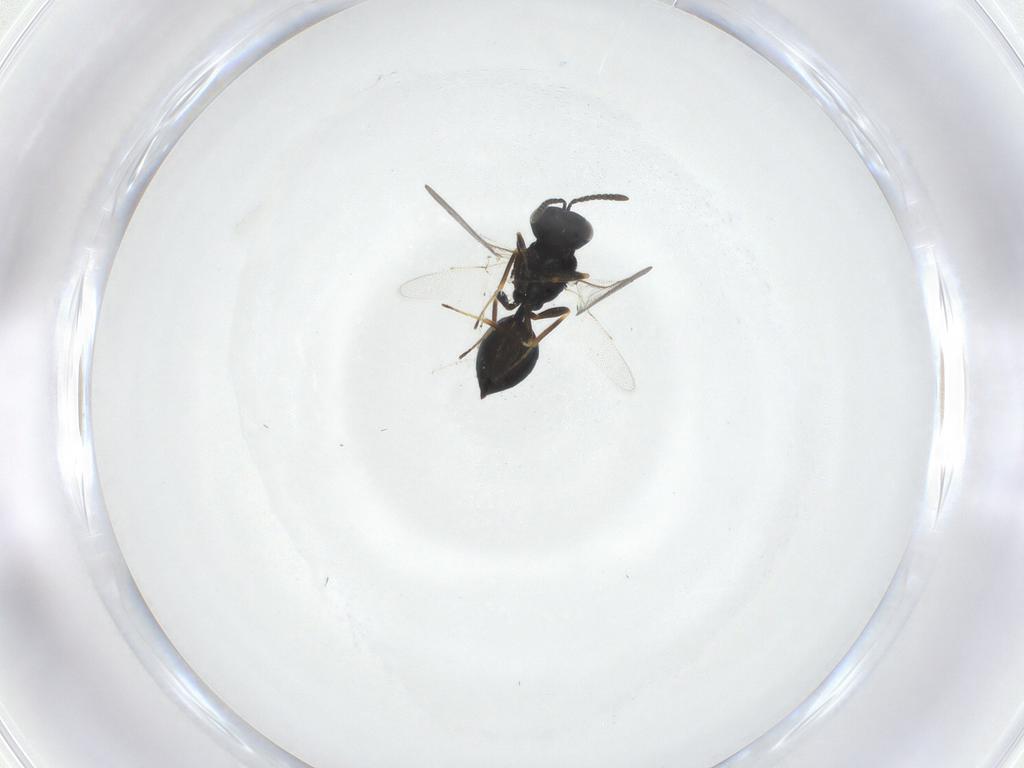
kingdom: Animalia
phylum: Arthropoda
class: Insecta
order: Hymenoptera
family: Pteromalidae
